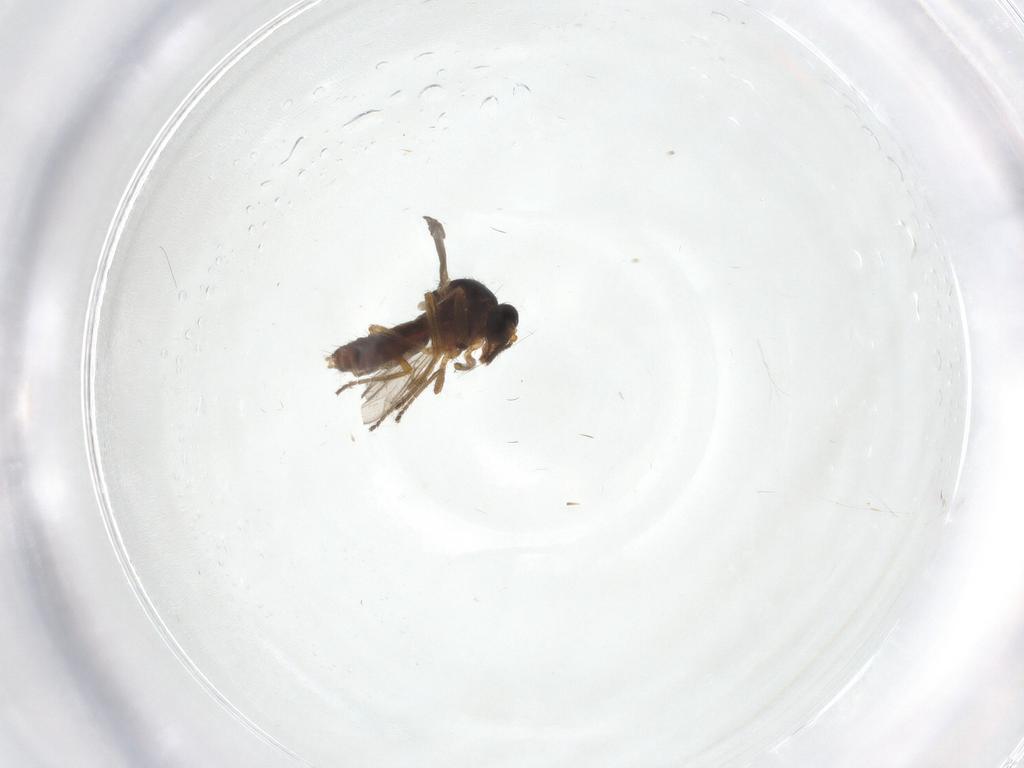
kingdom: Animalia
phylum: Arthropoda
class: Insecta
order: Diptera
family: Ceratopogonidae
